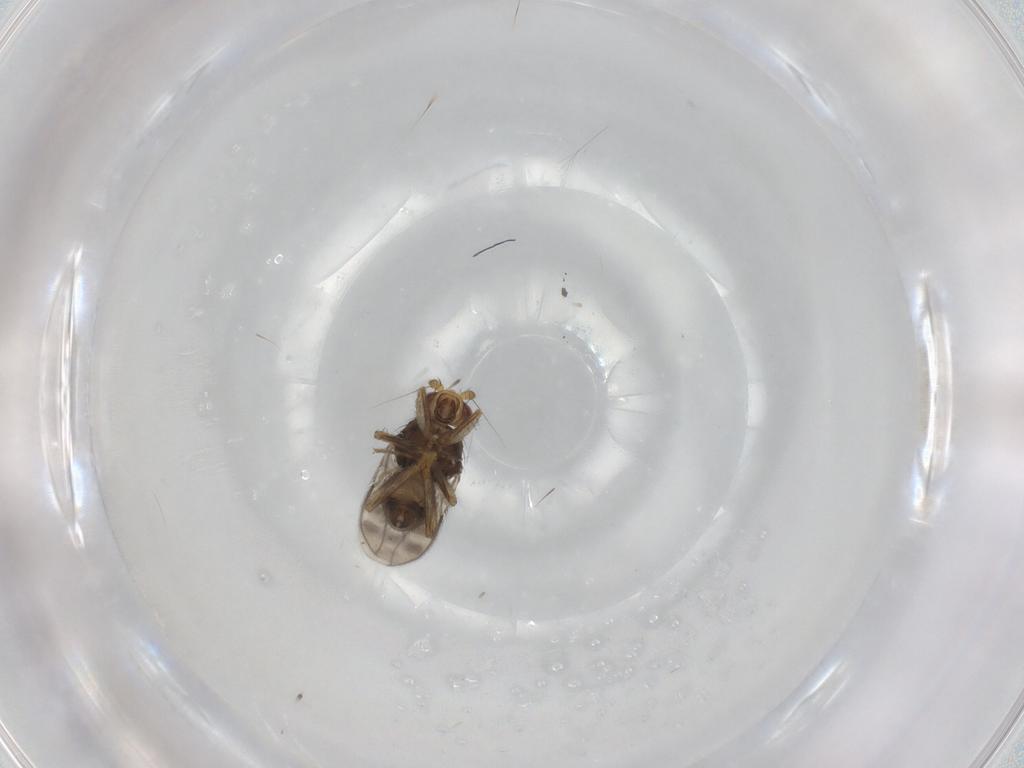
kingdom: Animalia
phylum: Arthropoda
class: Insecta
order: Diptera
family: Sphaeroceridae
